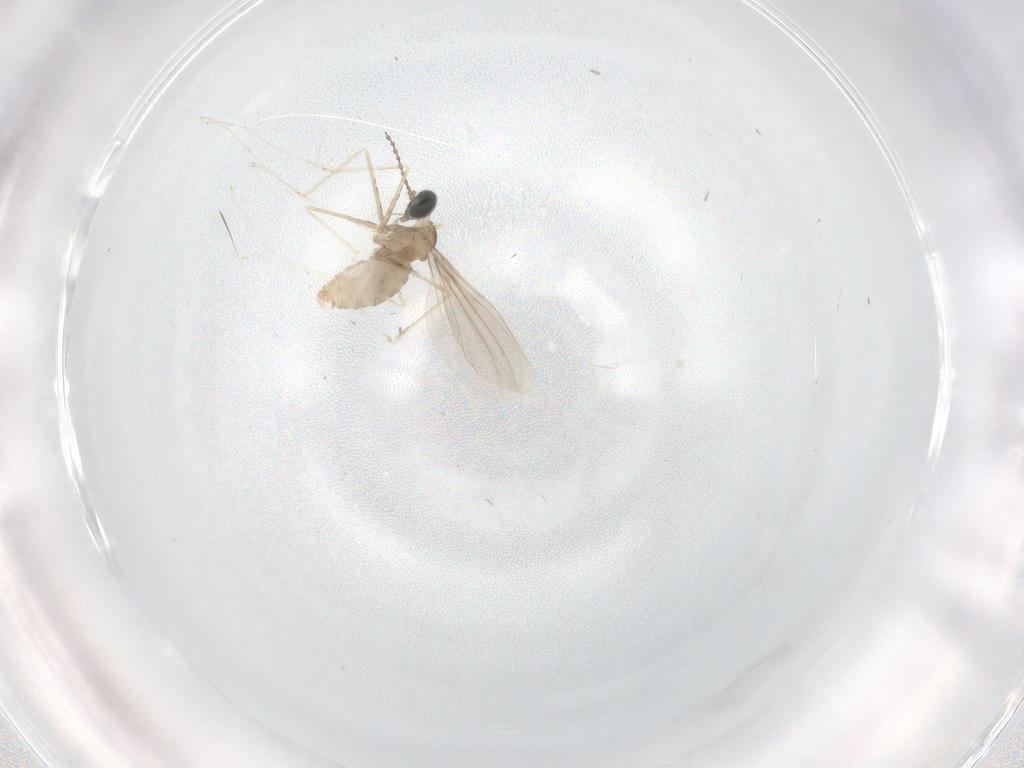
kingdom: Animalia
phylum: Arthropoda
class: Insecta
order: Diptera
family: Cecidomyiidae
